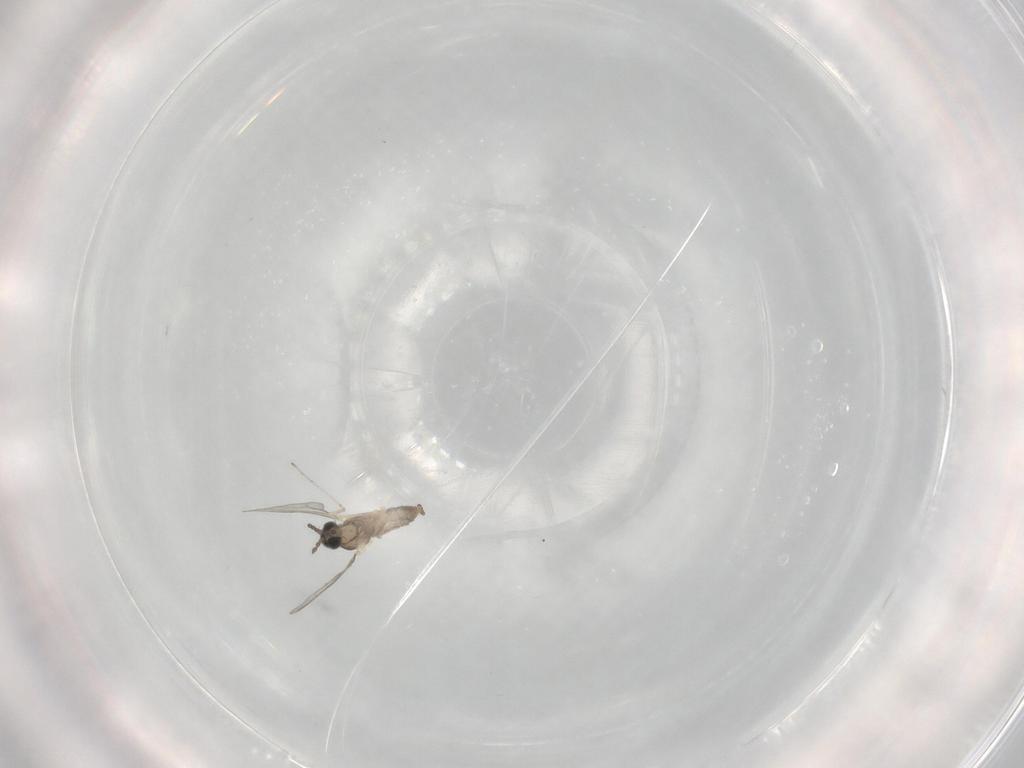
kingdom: Animalia
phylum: Arthropoda
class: Insecta
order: Diptera
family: Cecidomyiidae
